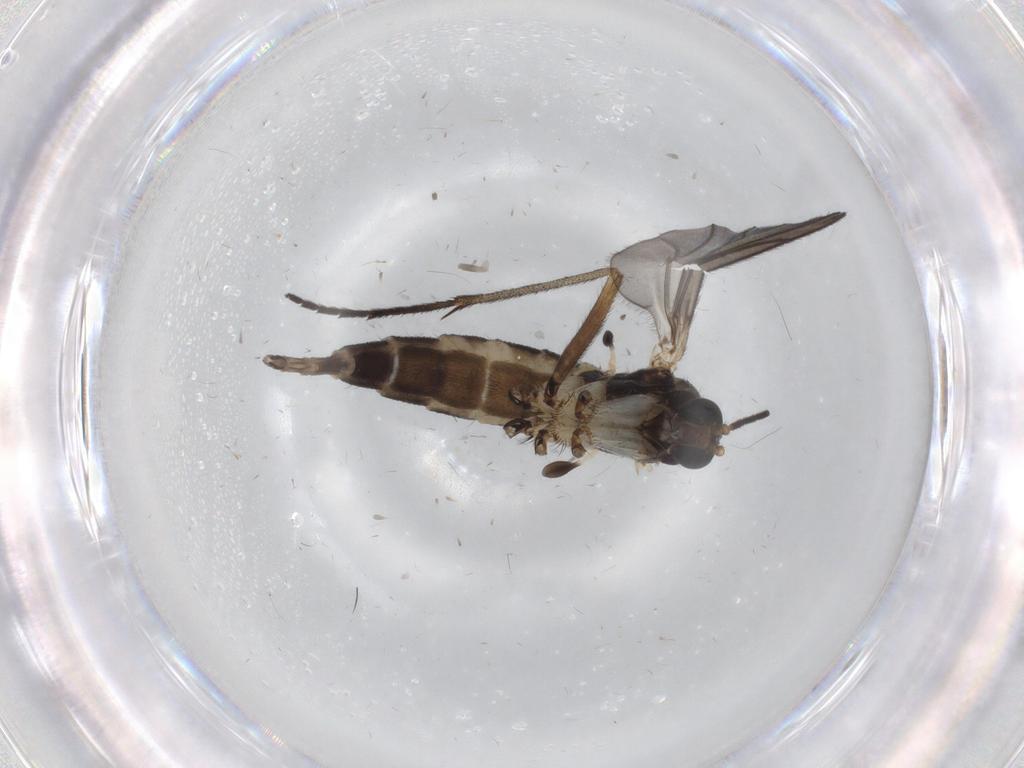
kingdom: Animalia
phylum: Arthropoda
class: Insecta
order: Diptera
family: Sciaridae
